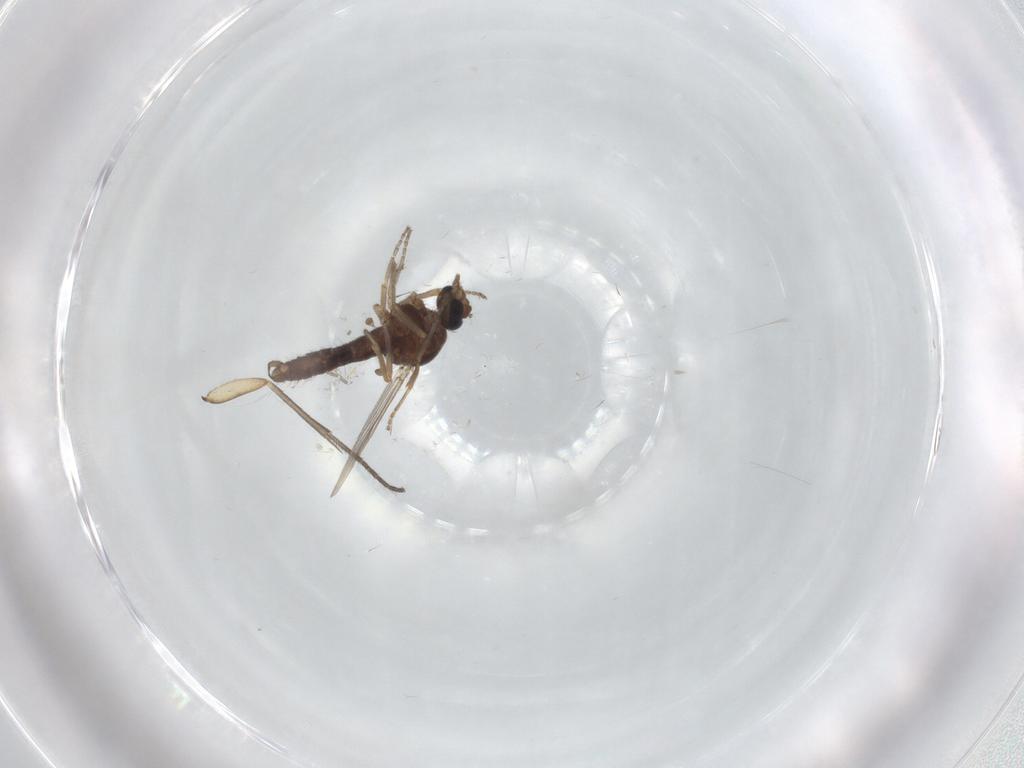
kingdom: Animalia
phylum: Arthropoda
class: Insecta
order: Diptera
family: Ceratopogonidae
